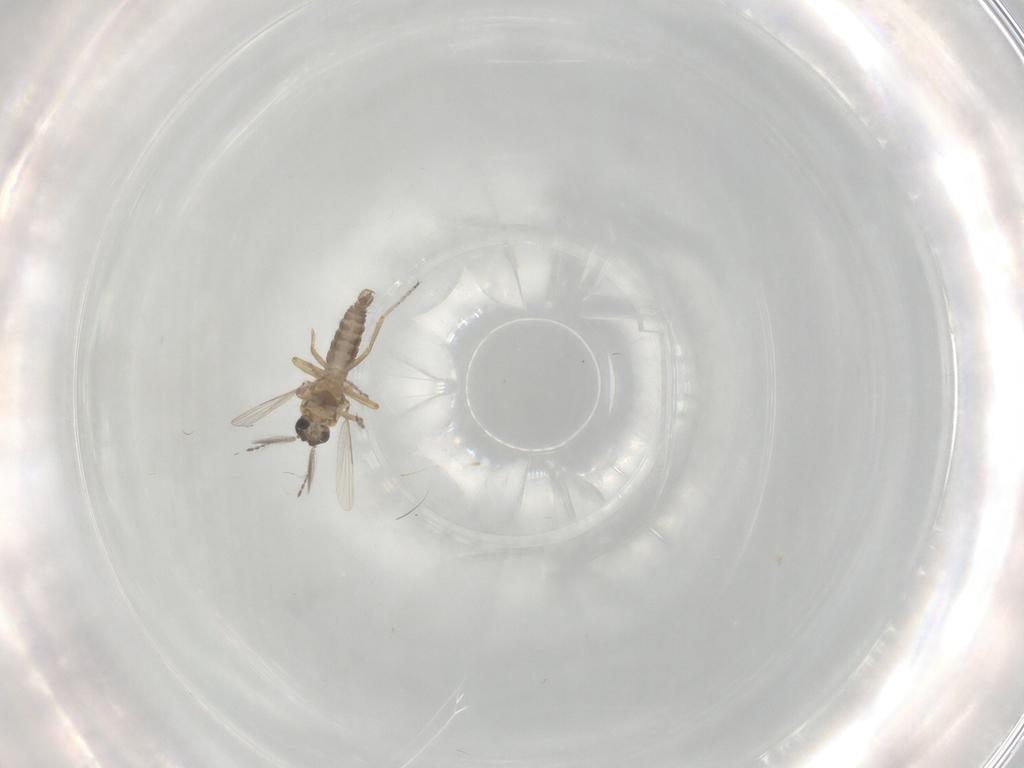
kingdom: Animalia
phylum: Arthropoda
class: Insecta
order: Diptera
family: Ceratopogonidae
